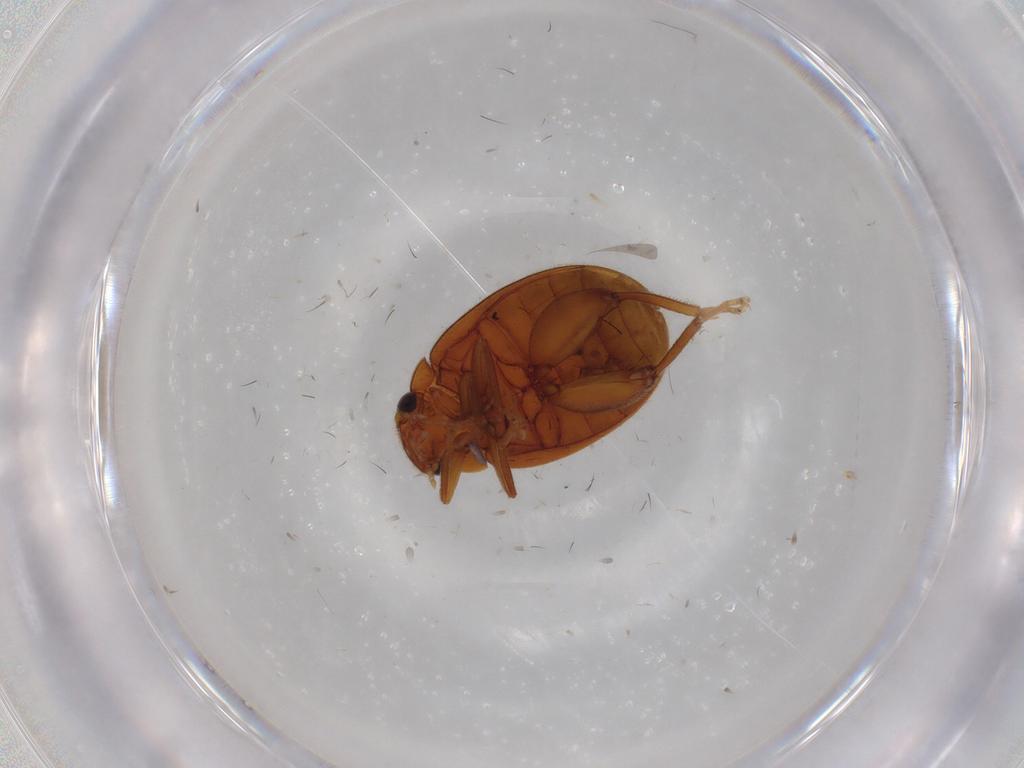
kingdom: Animalia
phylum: Arthropoda
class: Insecta
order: Coleoptera
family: Scirtidae
